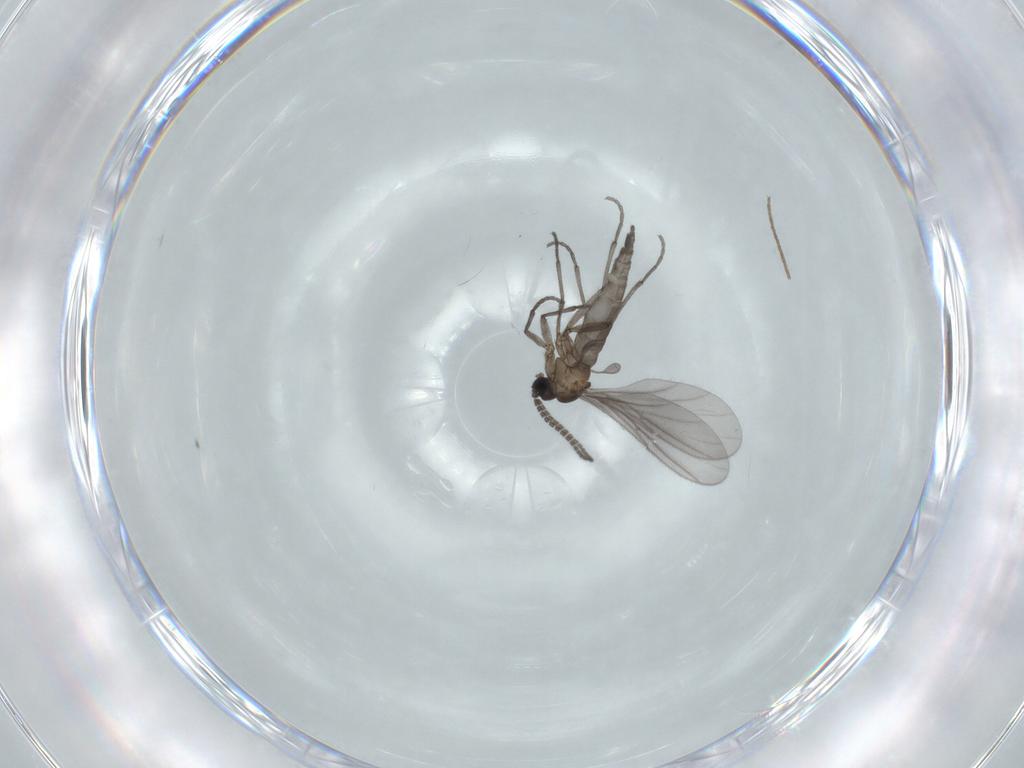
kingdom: Animalia
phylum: Arthropoda
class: Insecta
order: Diptera
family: Sciaridae
